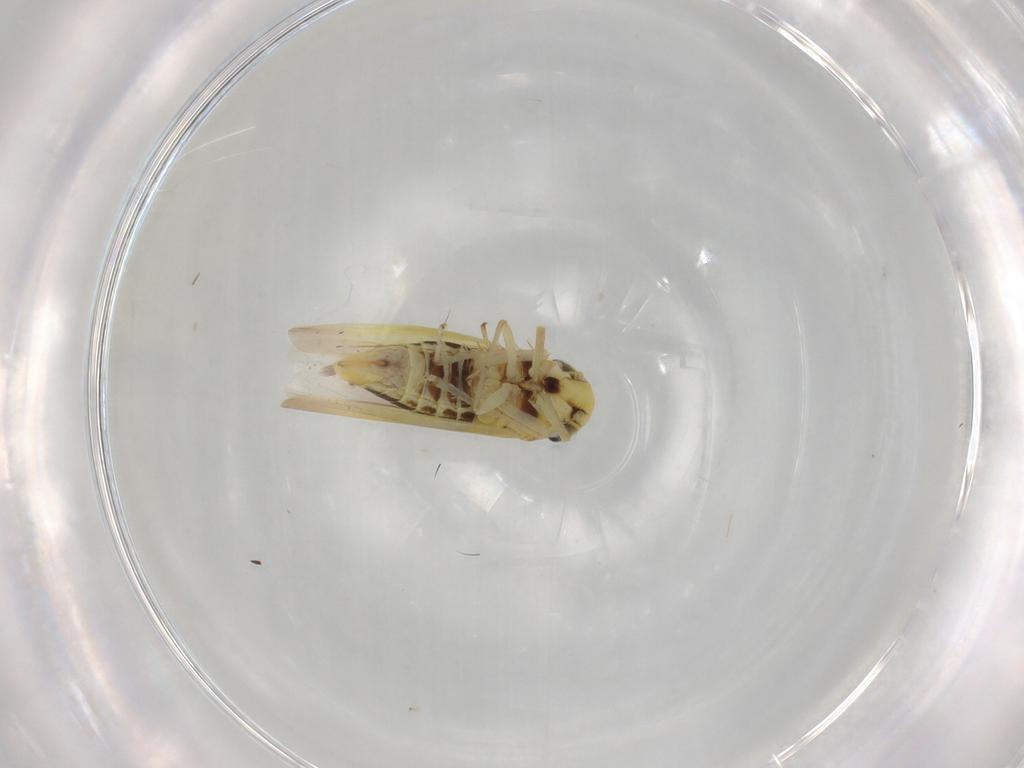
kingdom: Animalia
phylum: Arthropoda
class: Insecta
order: Hemiptera
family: Cicadellidae
